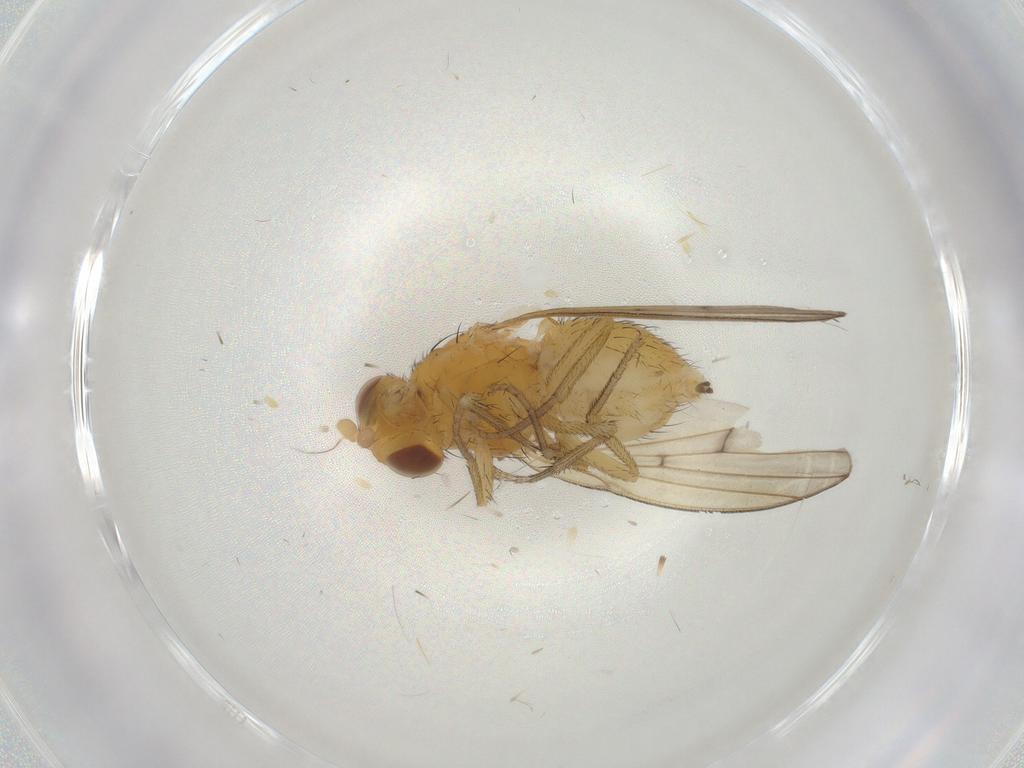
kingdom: Animalia
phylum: Arthropoda
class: Insecta
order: Diptera
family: Cecidomyiidae
